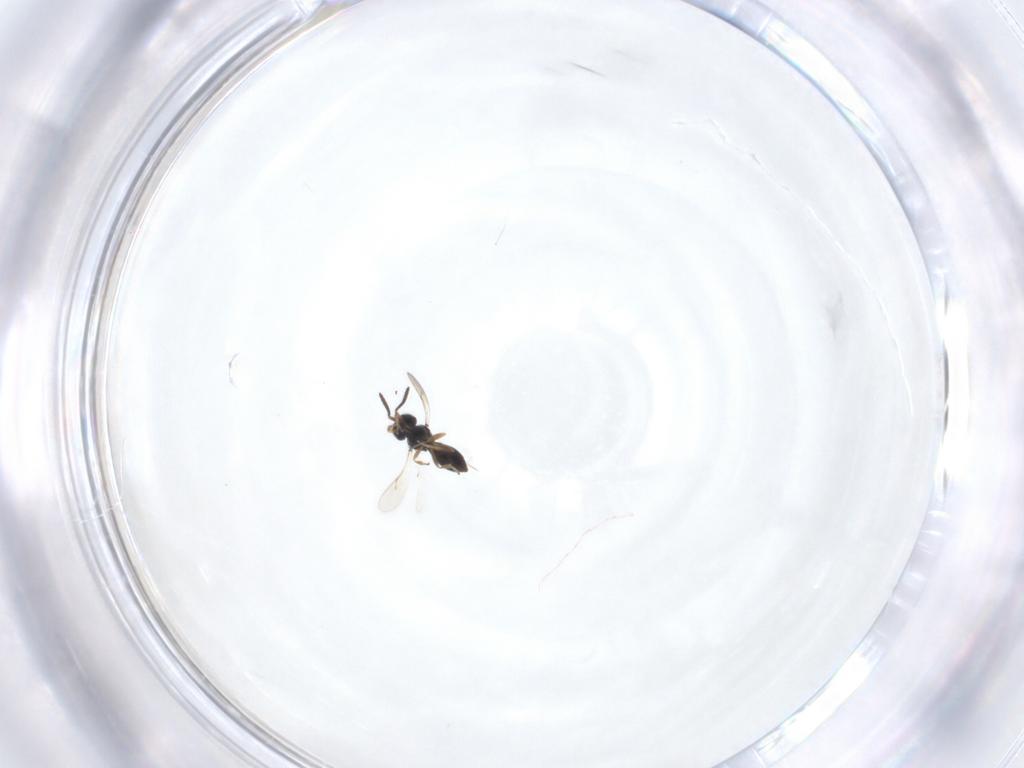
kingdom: Animalia
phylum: Arthropoda
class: Insecta
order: Hymenoptera
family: Scelionidae
